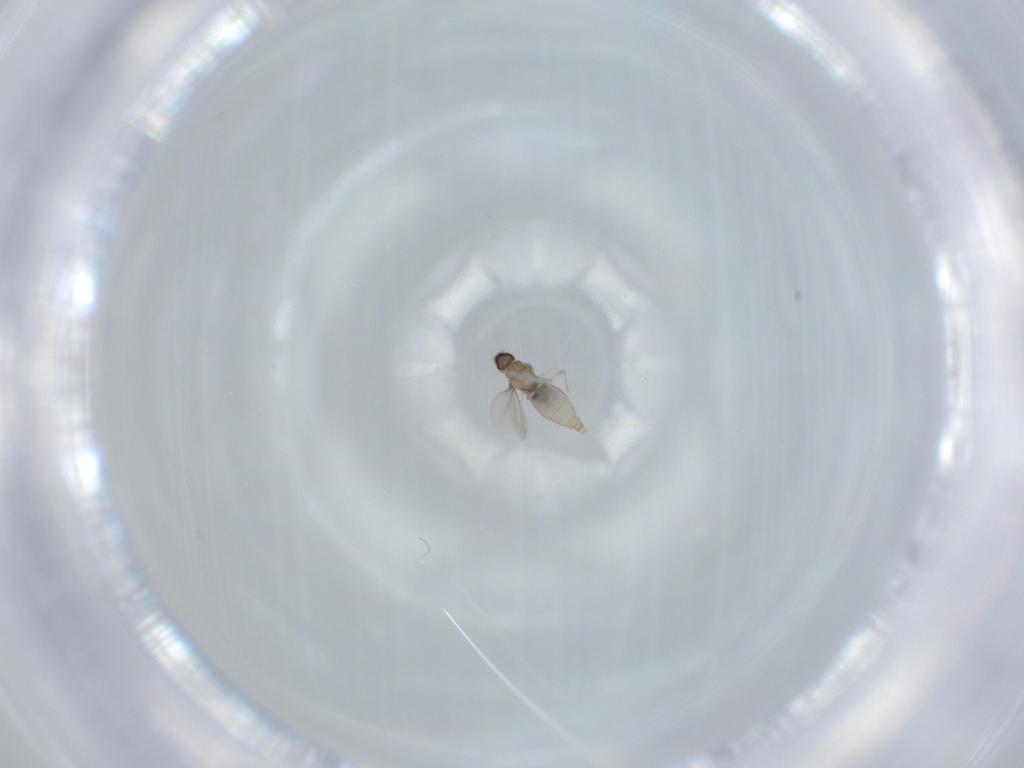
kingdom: Animalia
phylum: Arthropoda
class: Insecta
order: Diptera
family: Cecidomyiidae
